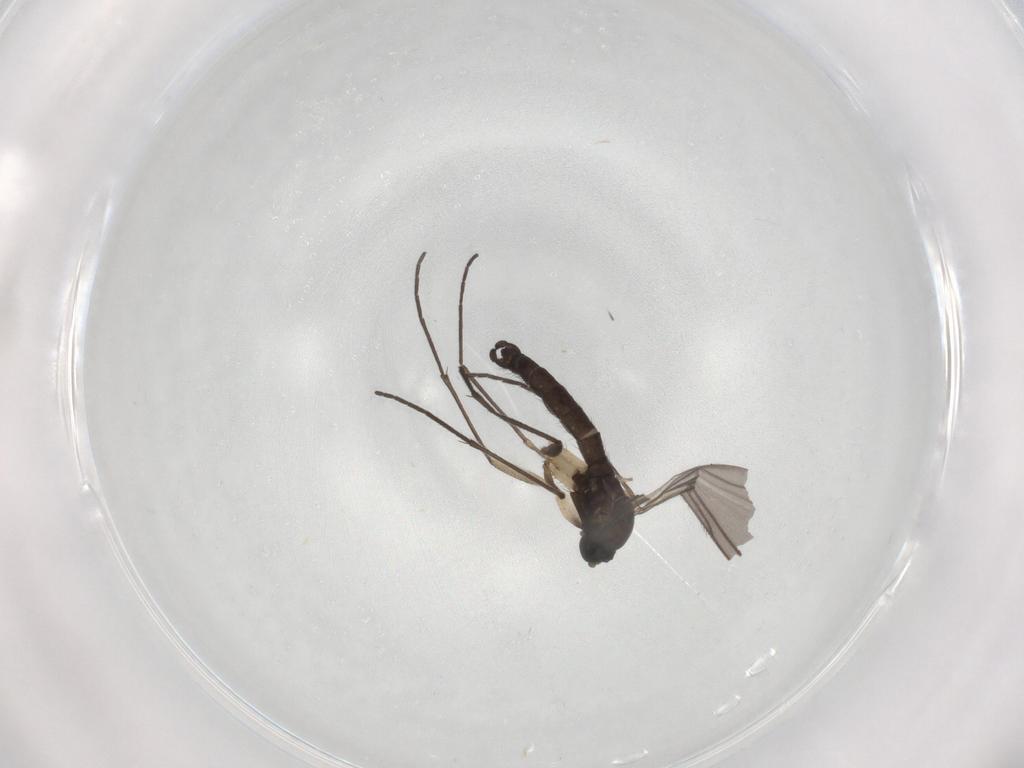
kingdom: Animalia
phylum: Arthropoda
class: Insecta
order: Diptera
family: Sciaridae
